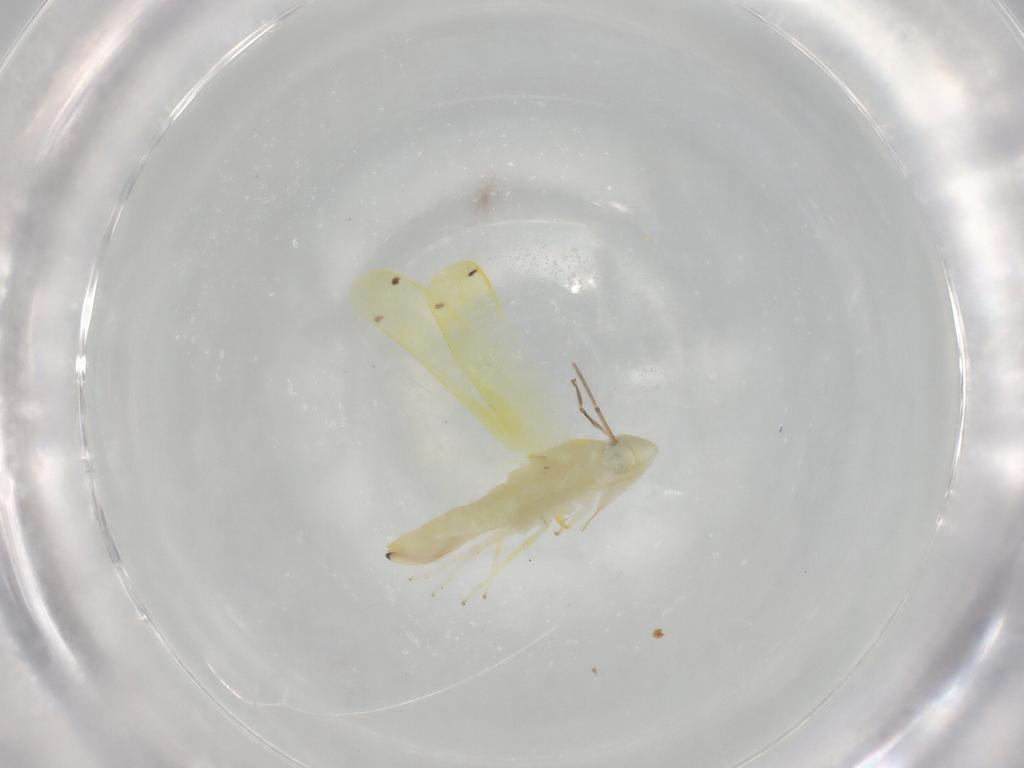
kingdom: Animalia
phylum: Arthropoda
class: Insecta
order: Hemiptera
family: Cicadellidae
